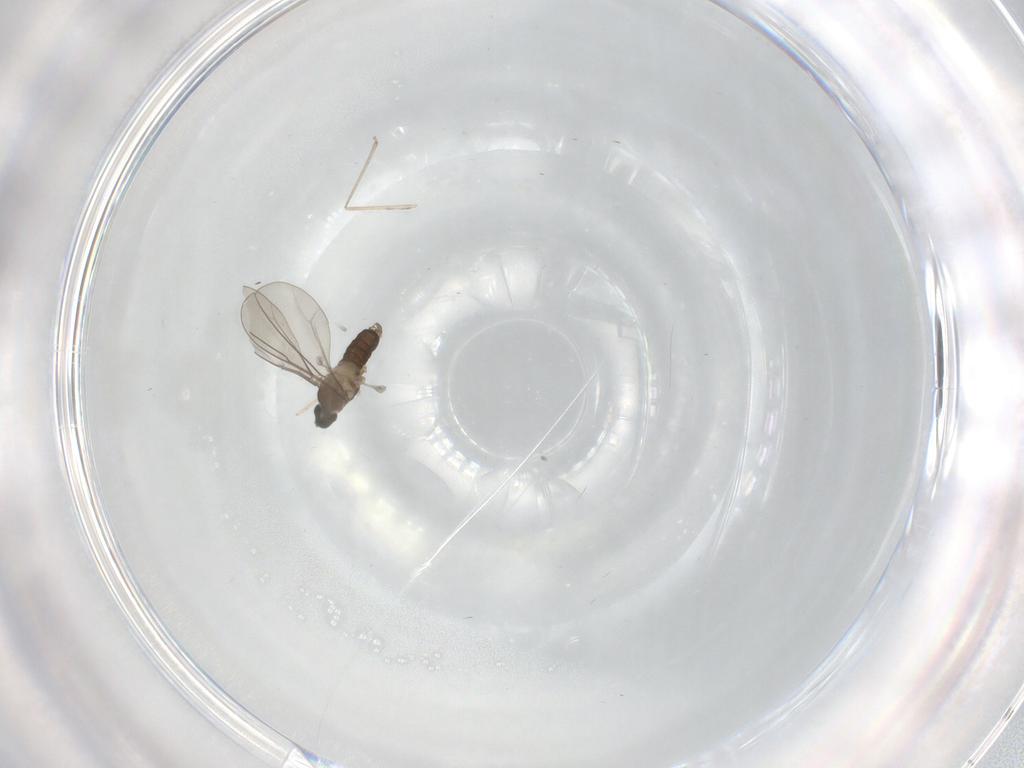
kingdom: Animalia
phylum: Arthropoda
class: Insecta
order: Diptera
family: Cecidomyiidae
